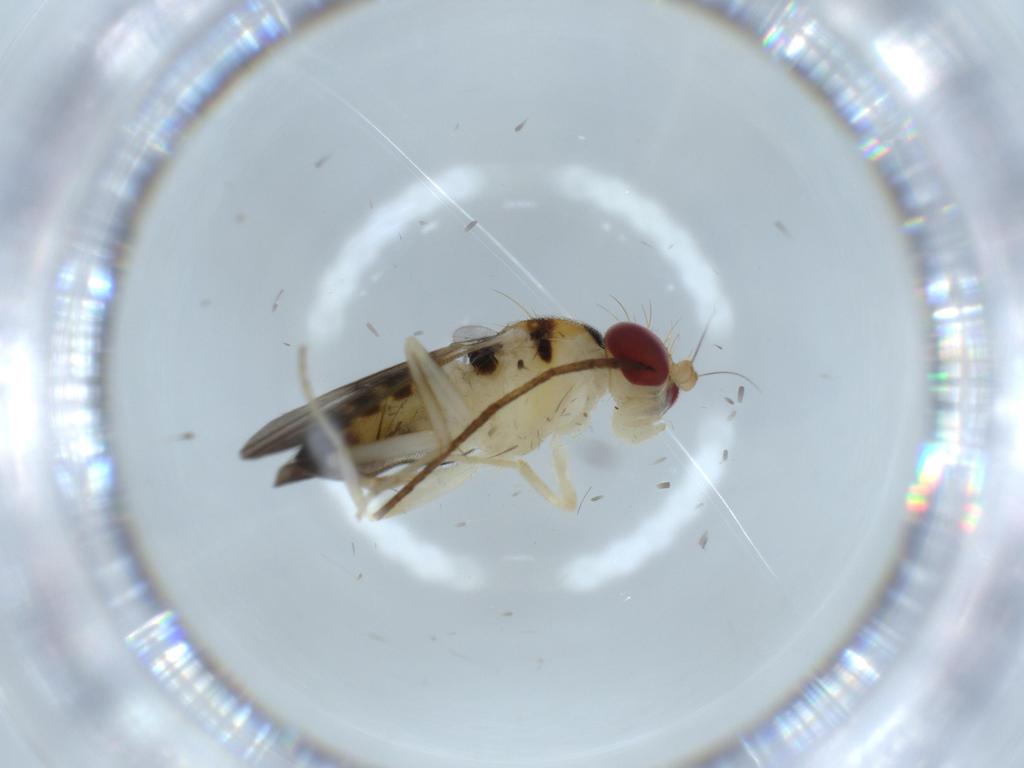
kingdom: Animalia
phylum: Arthropoda
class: Insecta
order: Diptera
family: Clusiidae
